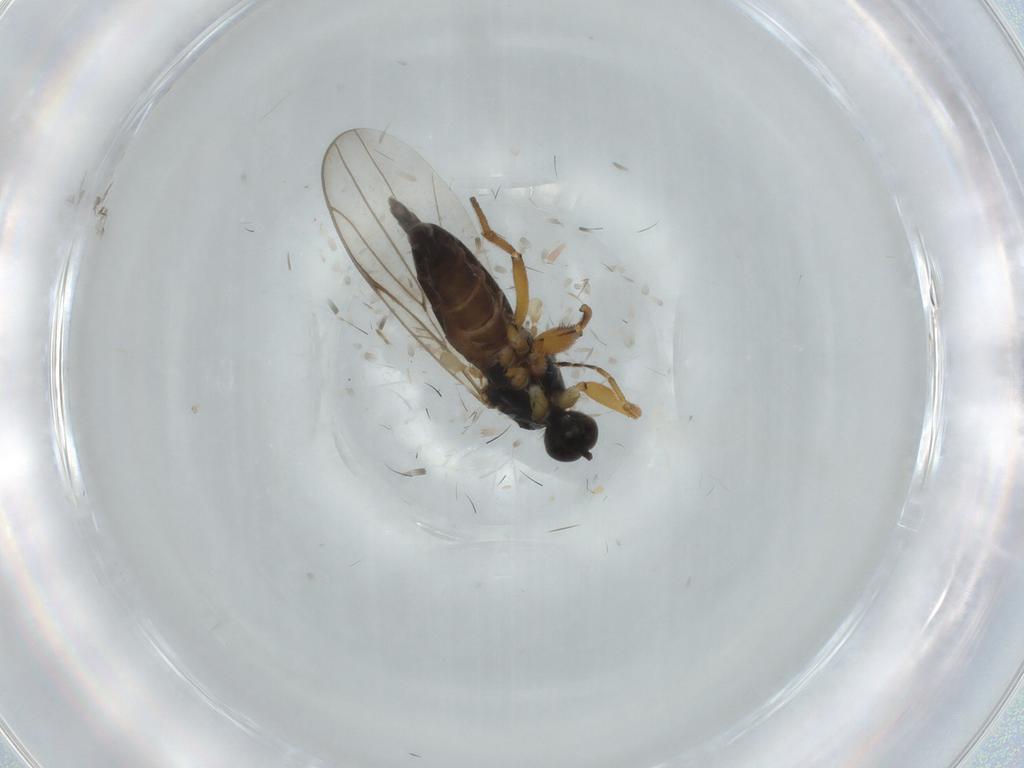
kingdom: Animalia
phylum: Arthropoda
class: Insecta
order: Diptera
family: Hybotidae
